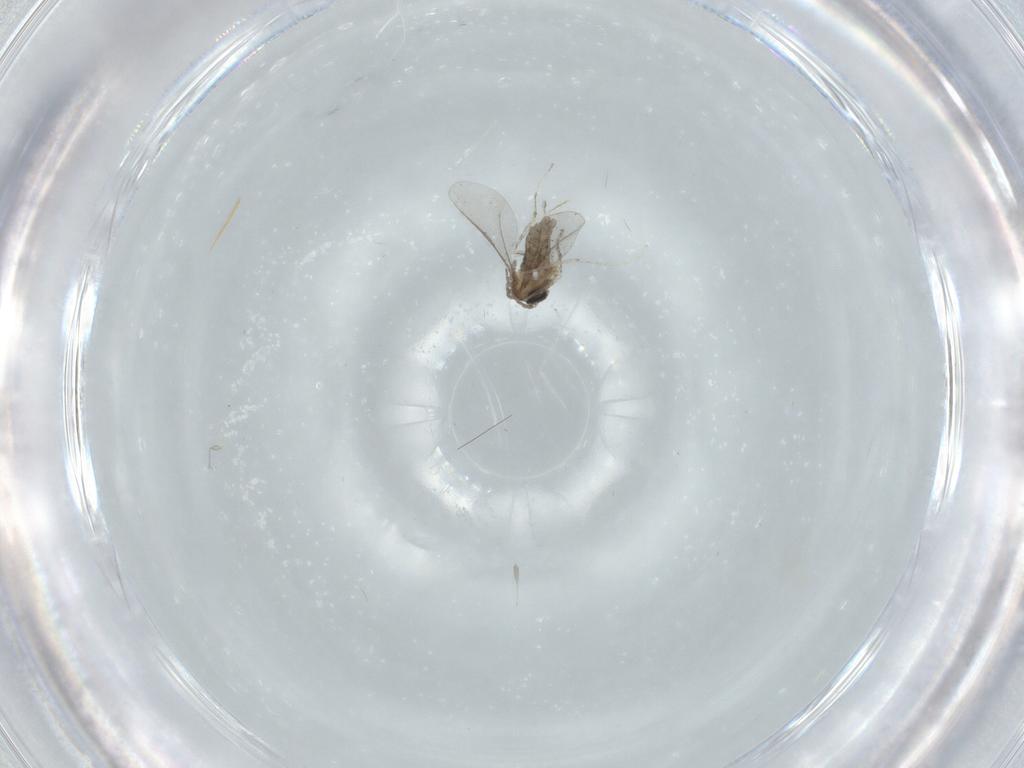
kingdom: Animalia
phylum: Arthropoda
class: Insecta
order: Diptera
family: Cecidomyiidae
